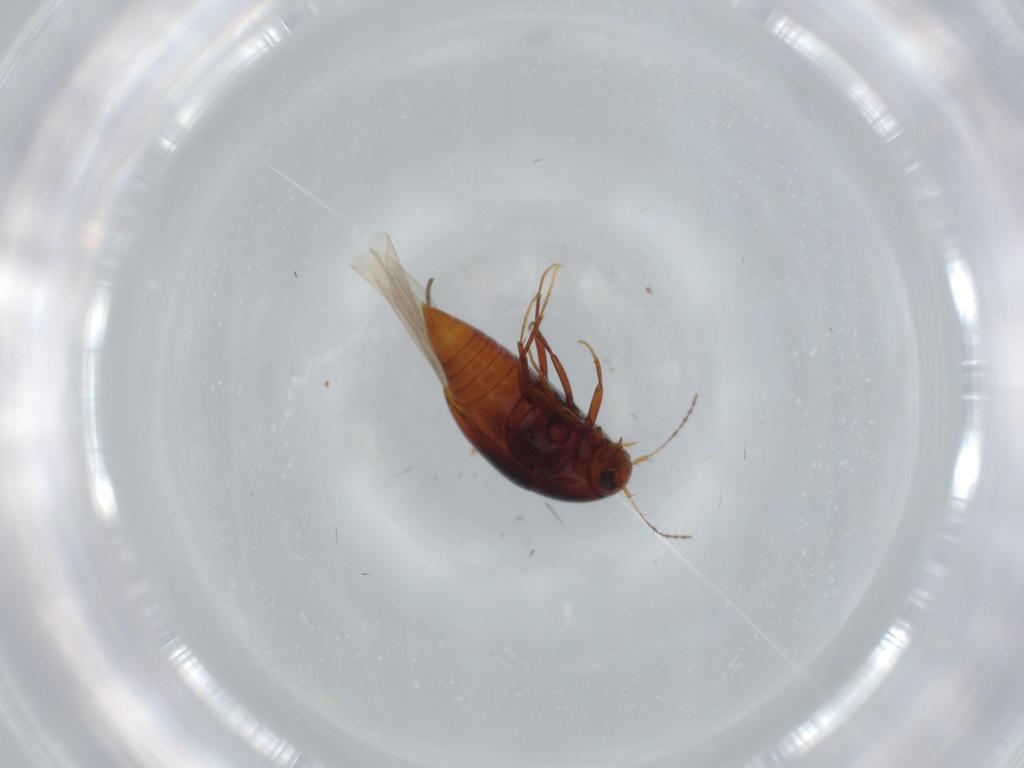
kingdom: Animalia
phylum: Arthropoda
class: Insecta
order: Coleoptera
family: Staphylinidae
